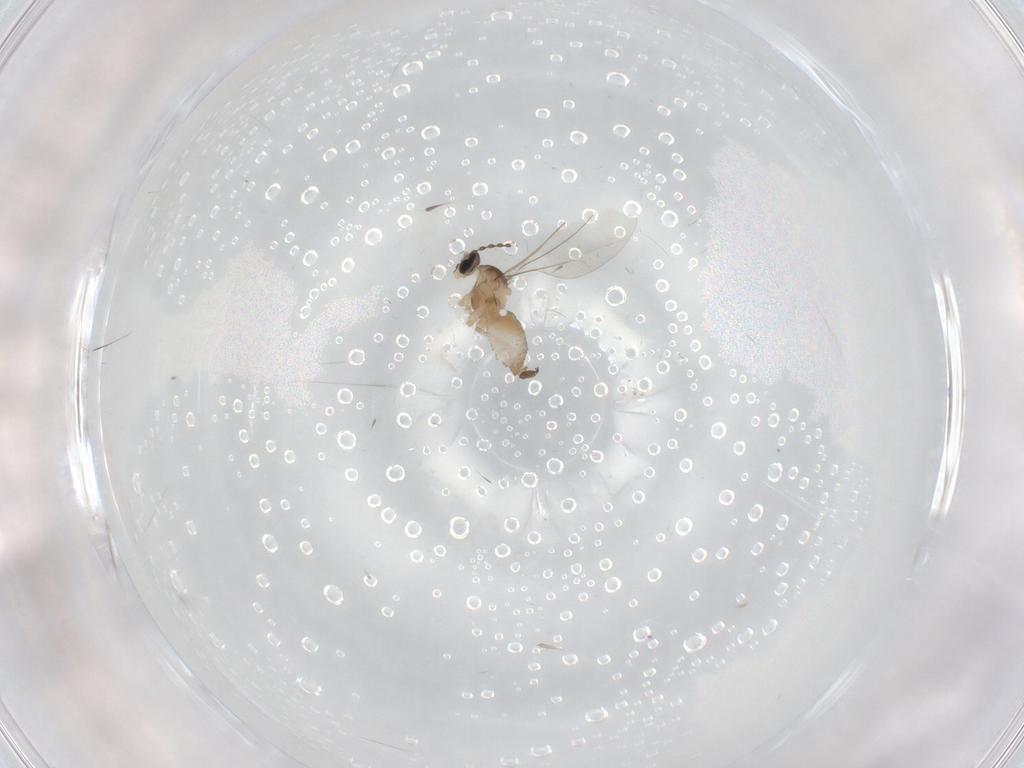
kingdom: Animalia
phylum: Arthropoda
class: Insecta
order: Diptera
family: Cecidomyiidae
